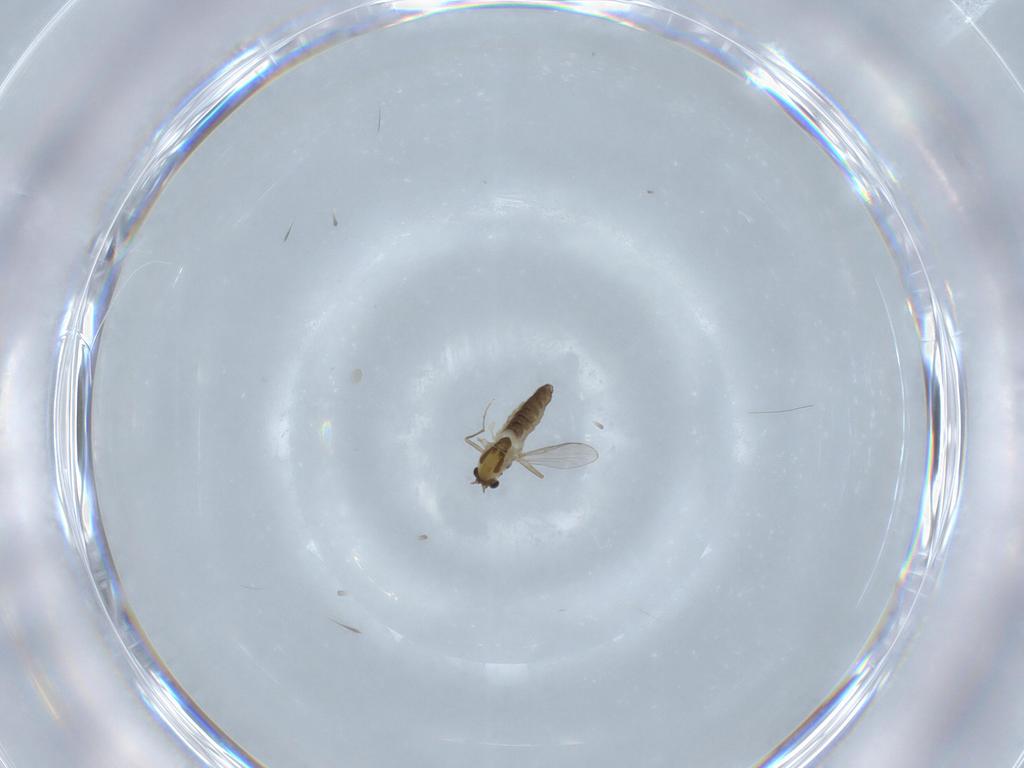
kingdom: Animalia
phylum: Arthropoda
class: Insecta
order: Diptera
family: Chironomidae
